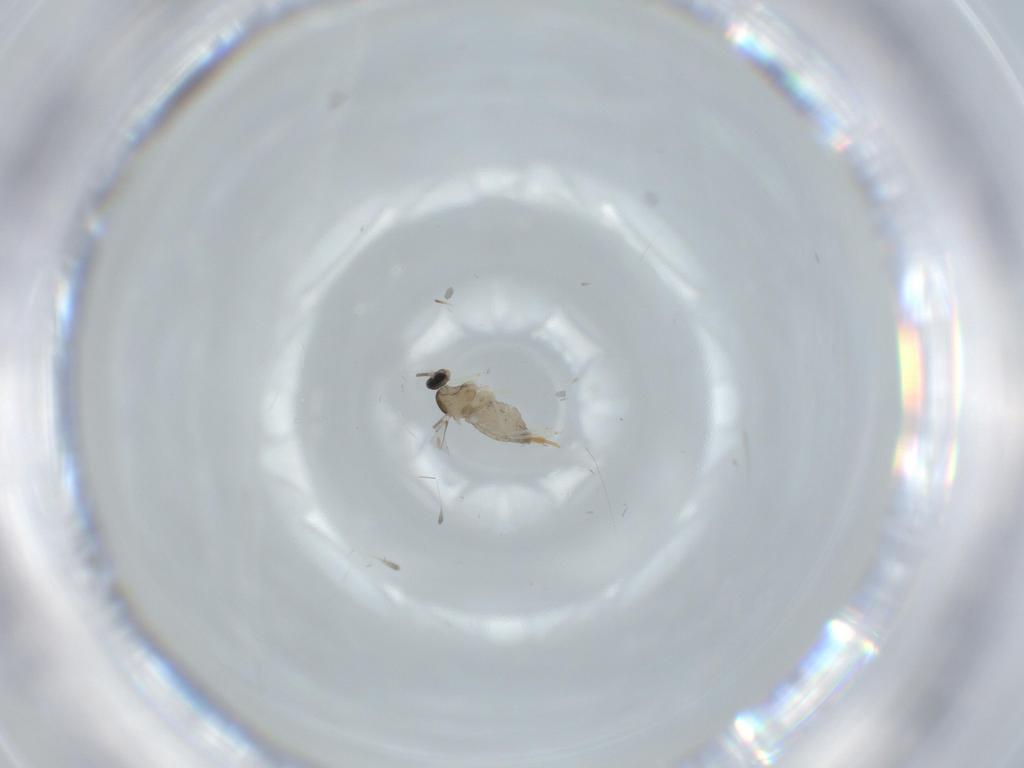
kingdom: Animalia
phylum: Arthropoda
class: Insecta
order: Diptera
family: Cecidomyiidae
